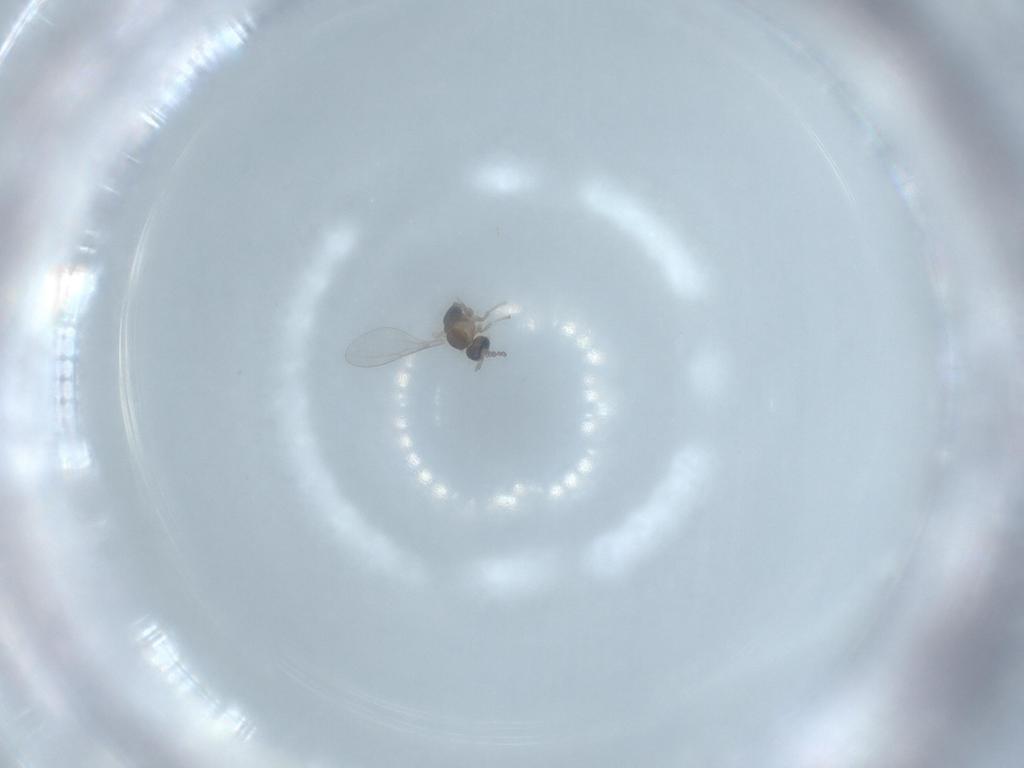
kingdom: Animalia
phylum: Arthropoda
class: Insecta
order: Diptera
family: Cecidomyiidae
